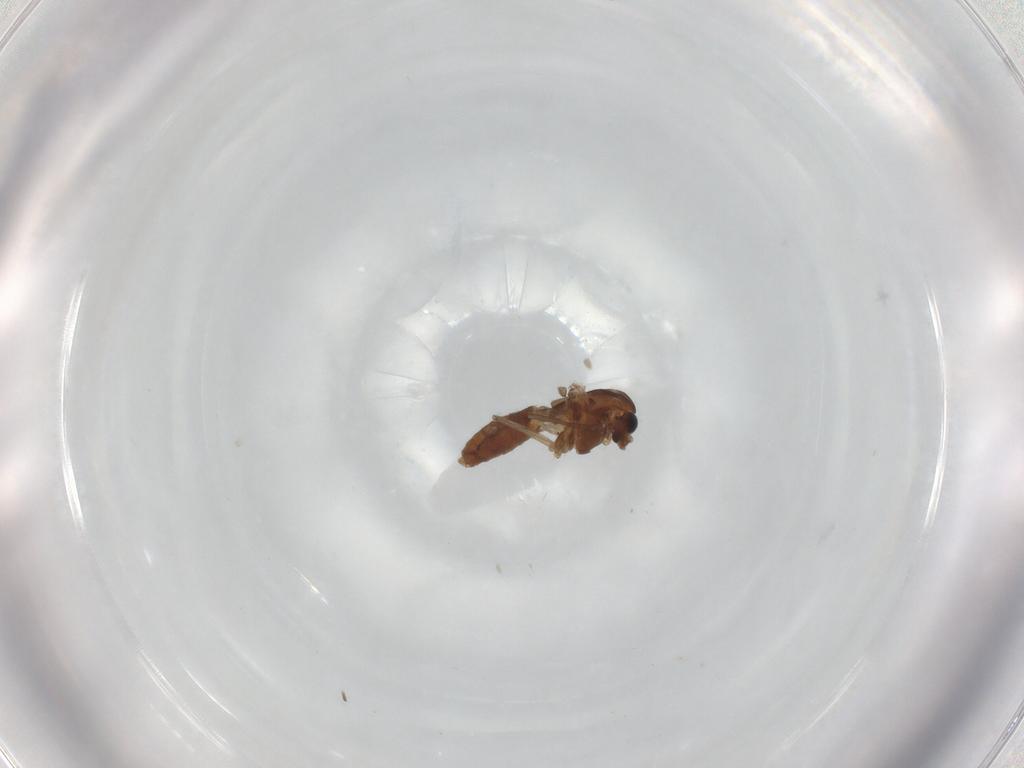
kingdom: Animalia
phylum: Arthropoda
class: Insecta
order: Diptera
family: Chironomidae
